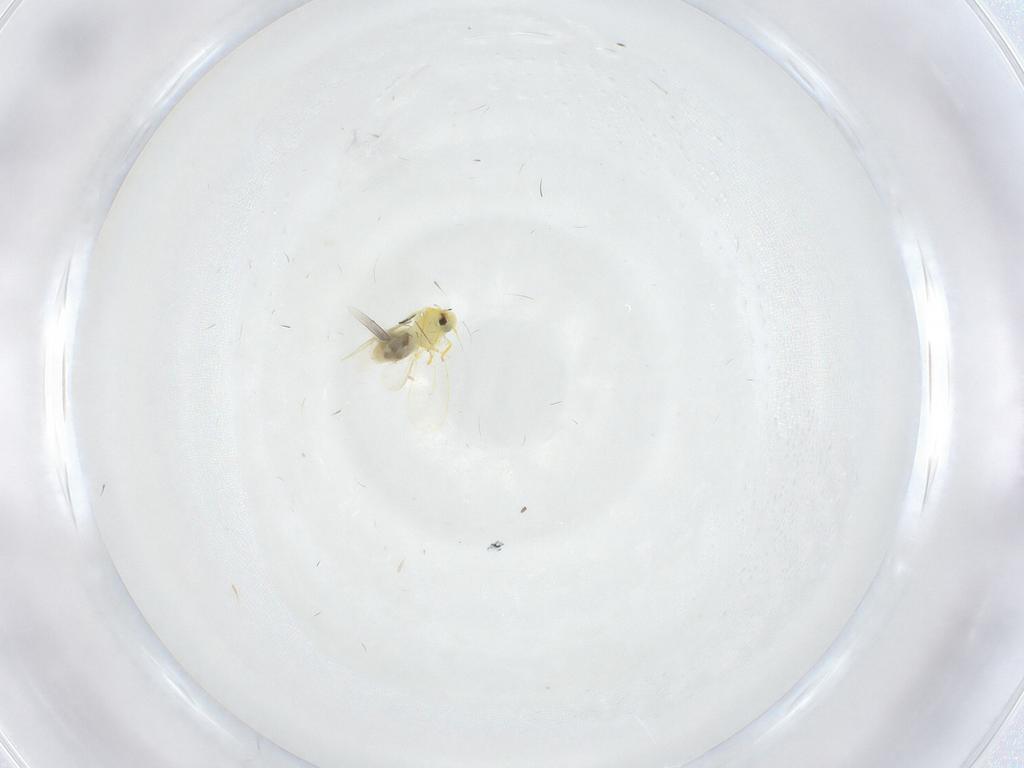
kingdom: Animalia
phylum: Arthropoda
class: Insecta
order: Hemiptera
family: Aleyrodidae
